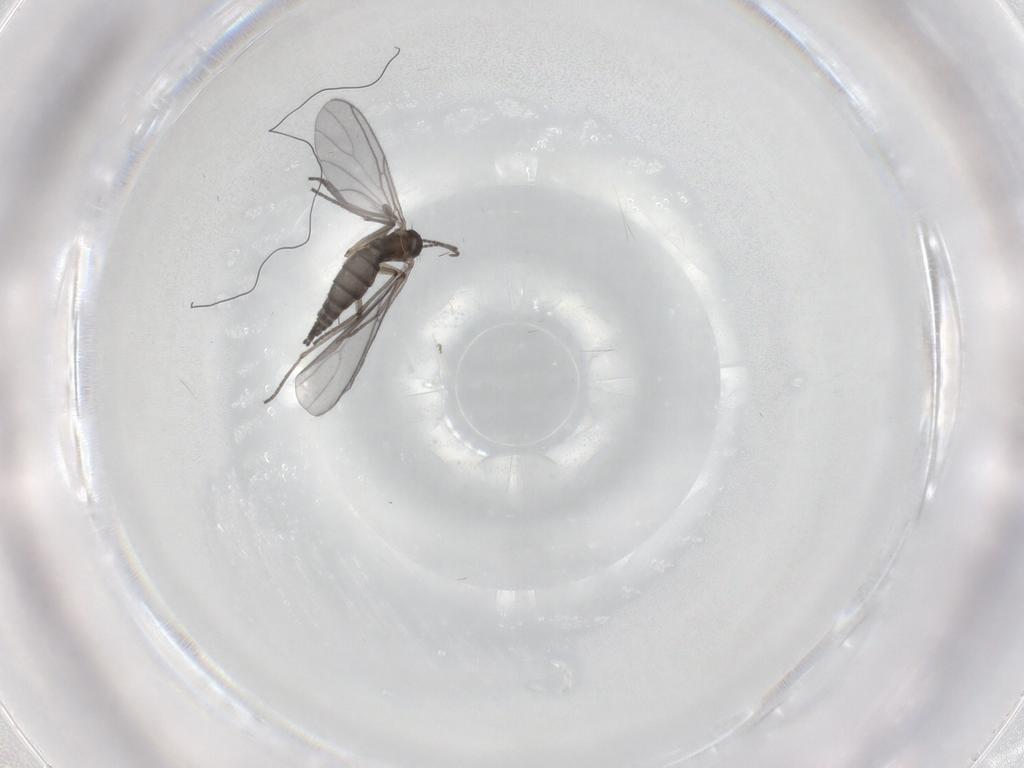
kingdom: Animalia
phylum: Arthropoda
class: Insecta
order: Diptera
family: Sciaridae
